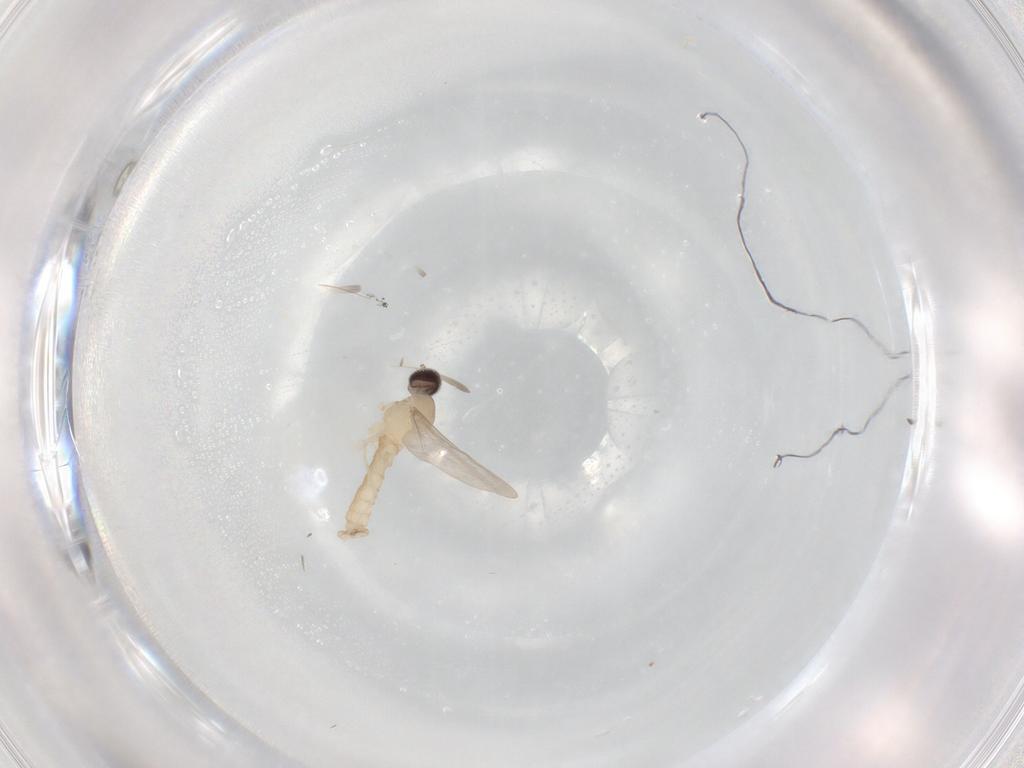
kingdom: Animalia
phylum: Arthropoda
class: Insecta
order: Diptera
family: Cecidomyiidae
